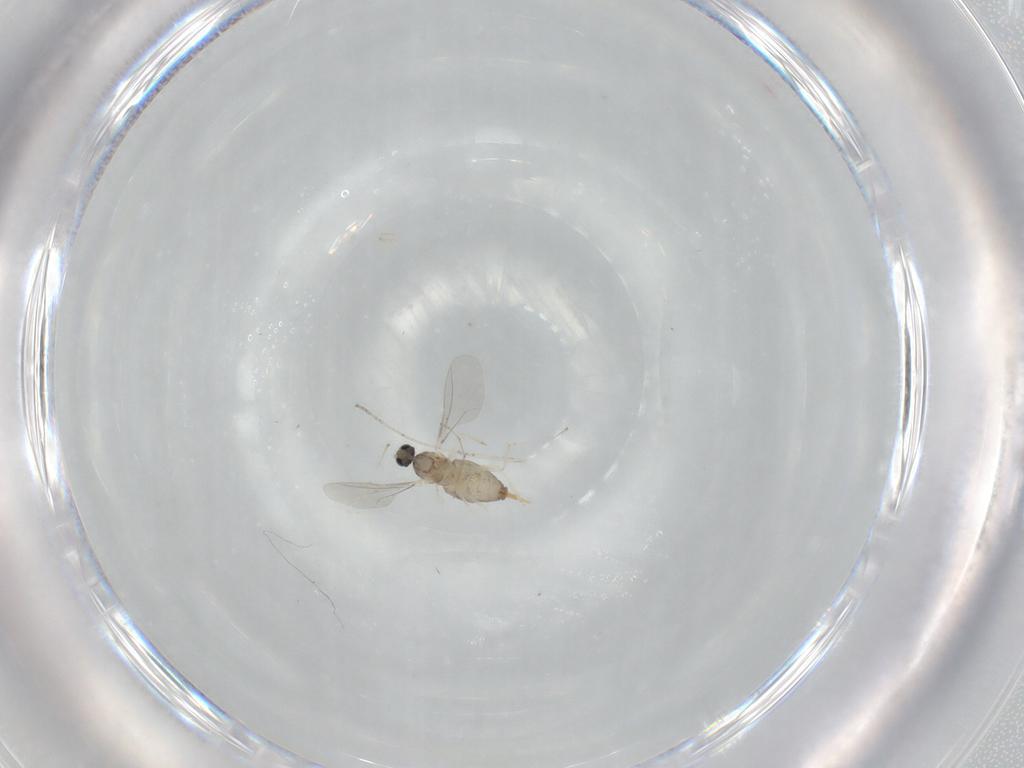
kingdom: Animalia
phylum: Arthropoda
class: Insecta
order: Diptera
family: Cecidomyiidae
